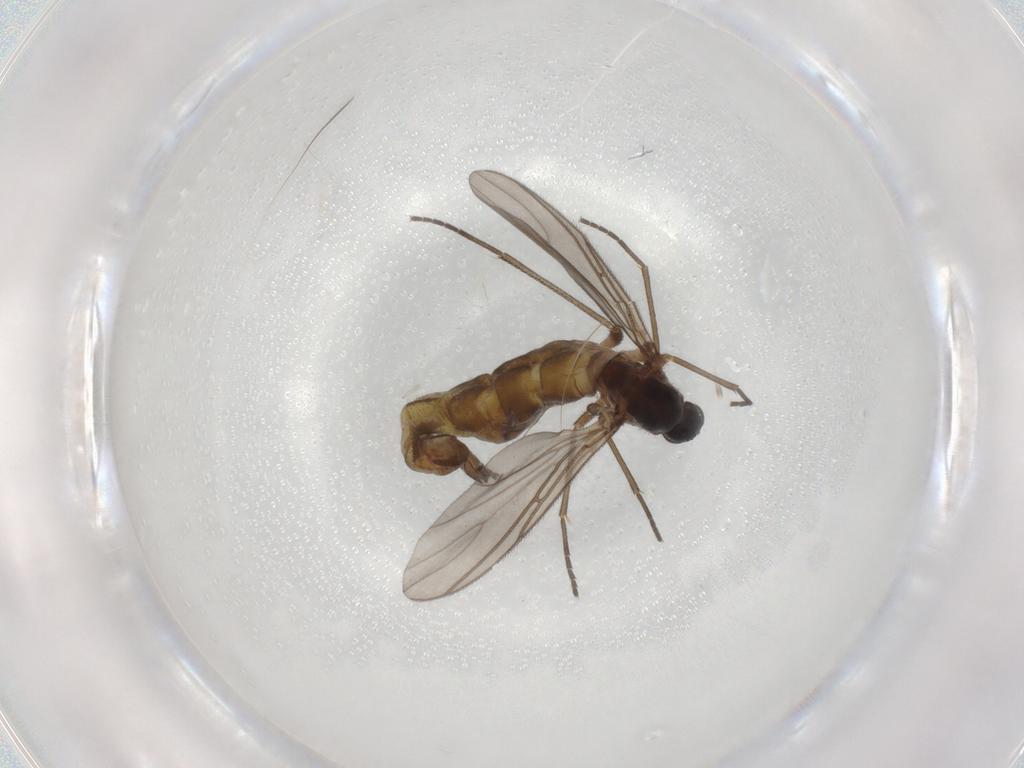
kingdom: Animalia
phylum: Arthropoda
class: Insecta
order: Diptera
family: Sciaridae
